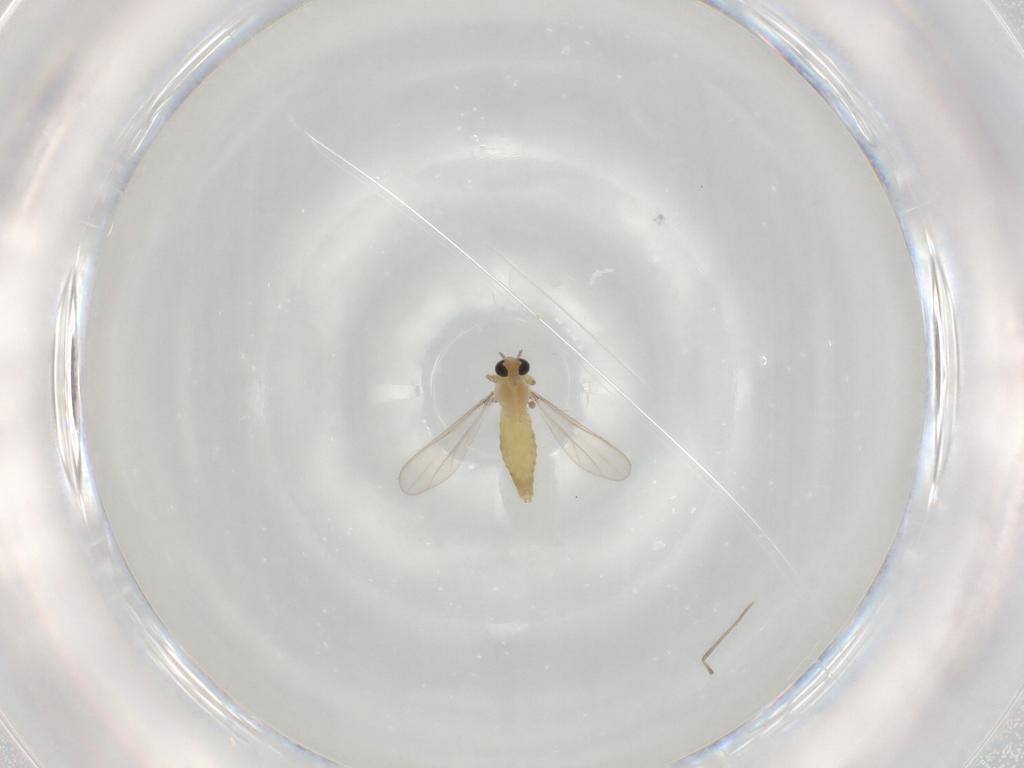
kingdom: Animalia
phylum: Arthropoda
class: Insecta
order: Diptera
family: Chironomidae
